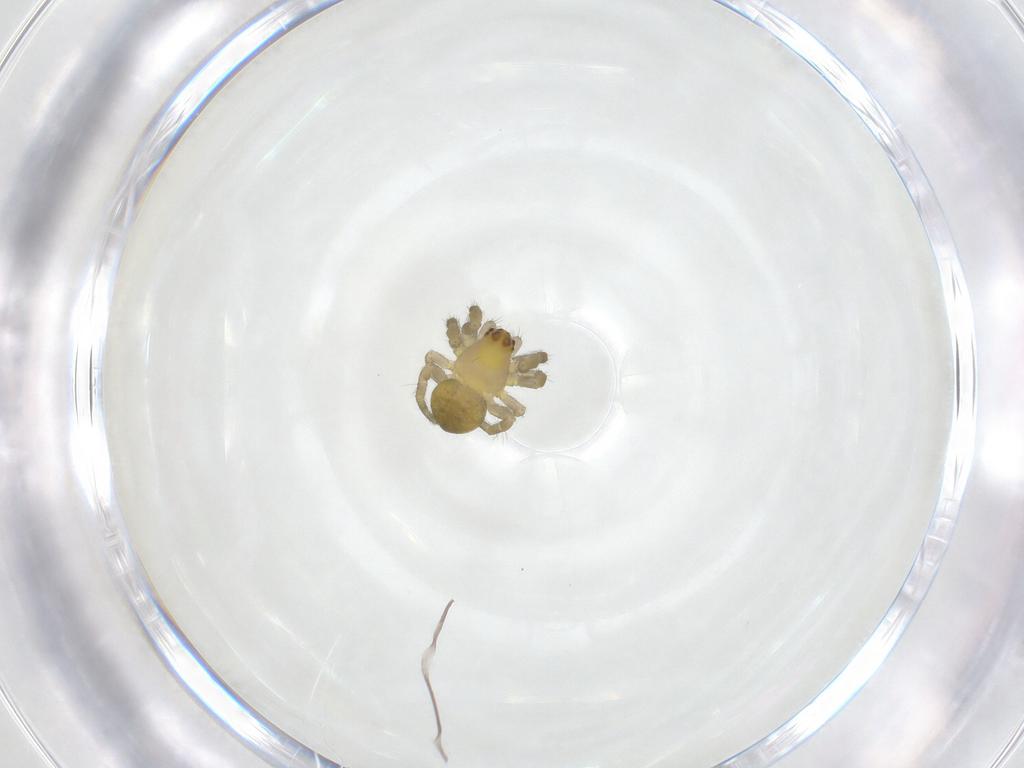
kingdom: Animalia
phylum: Arthropoda
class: Arachnida
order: Araneae
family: Araneidae
